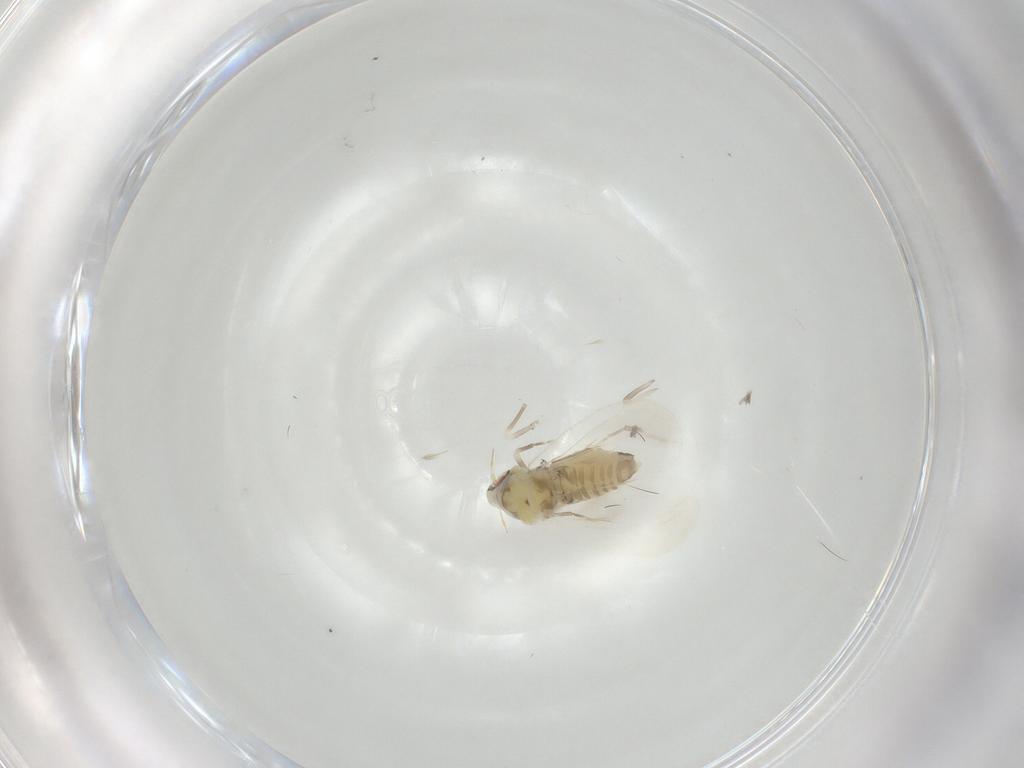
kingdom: Animalia
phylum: Arthropoda
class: Insecta
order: Hemiptera
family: Aleyrodidae
